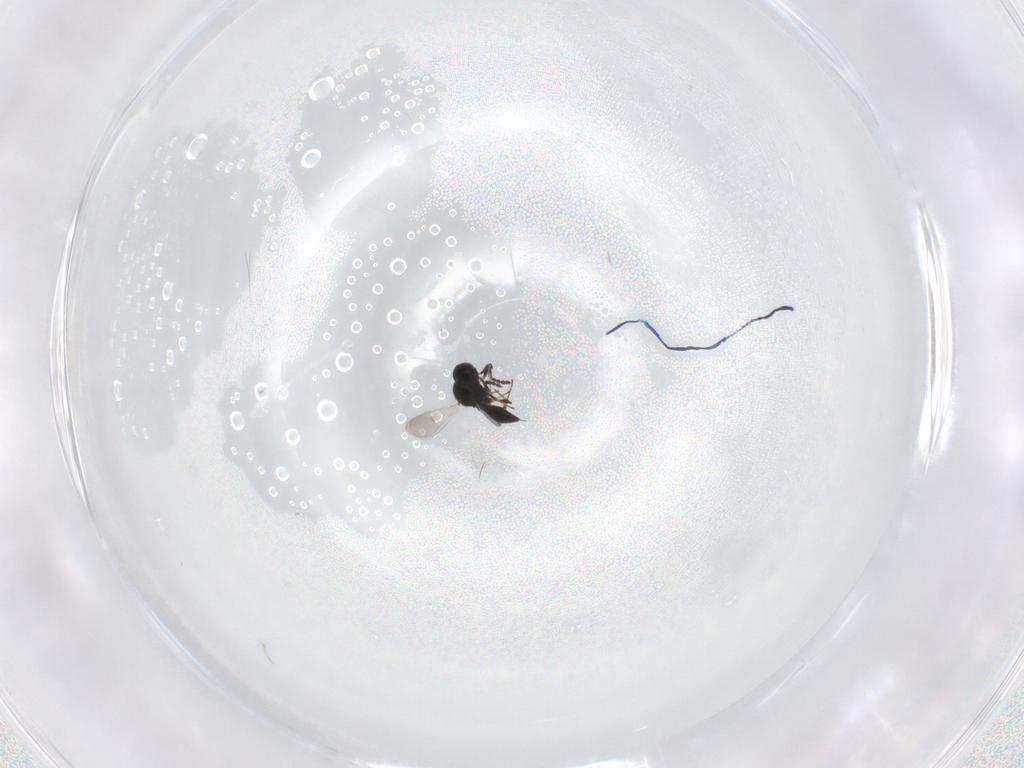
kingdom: Animalia
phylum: Arthropoda
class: Insecta
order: Hymenoptera
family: Platygastridae
